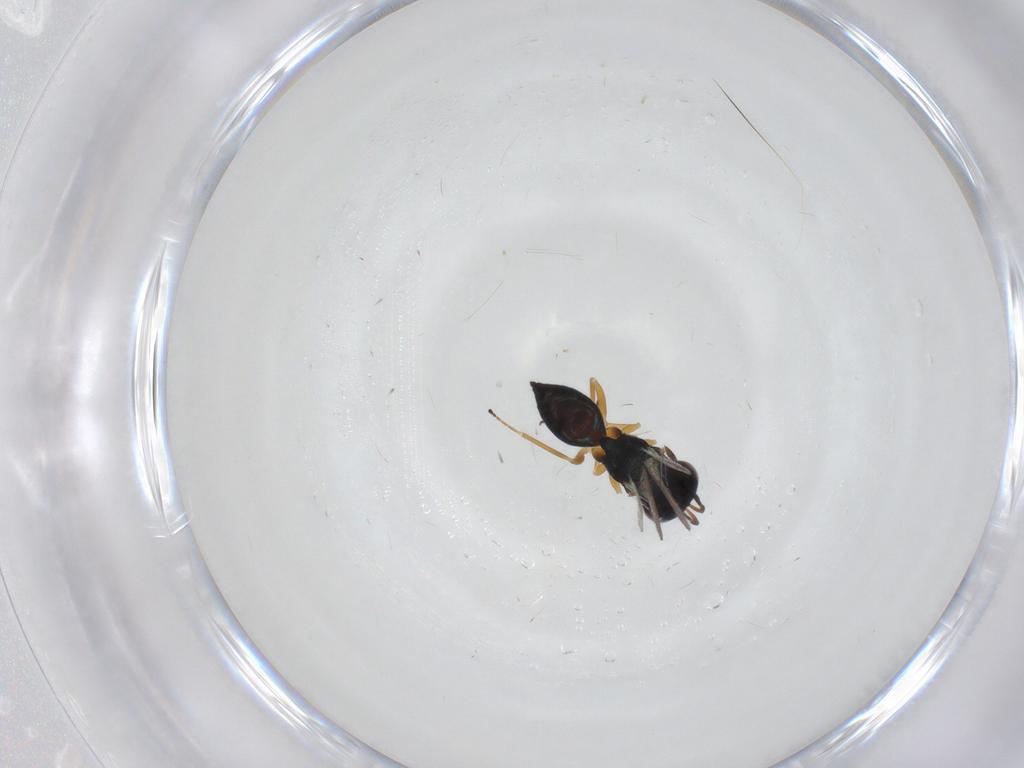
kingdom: Animalia
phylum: Arthropoda
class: Insecta
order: Hymenoptera
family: Pteromalidae
